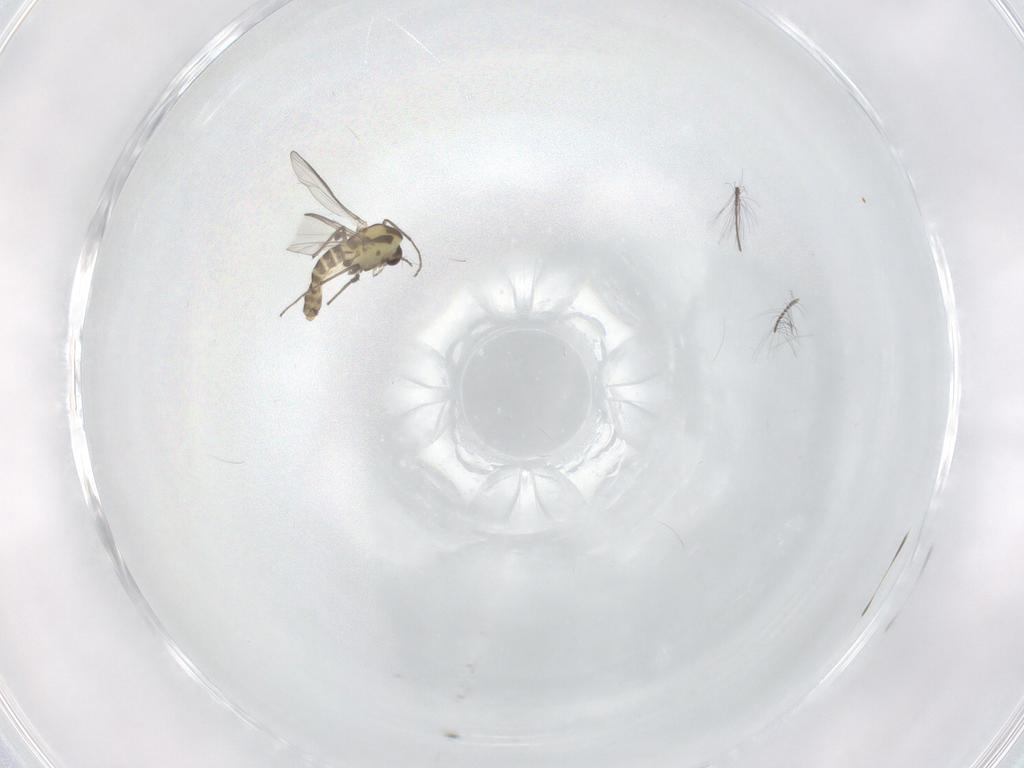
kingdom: Animalia
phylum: Arthropoda
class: Insecta
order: Diptera
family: Chironomidae
